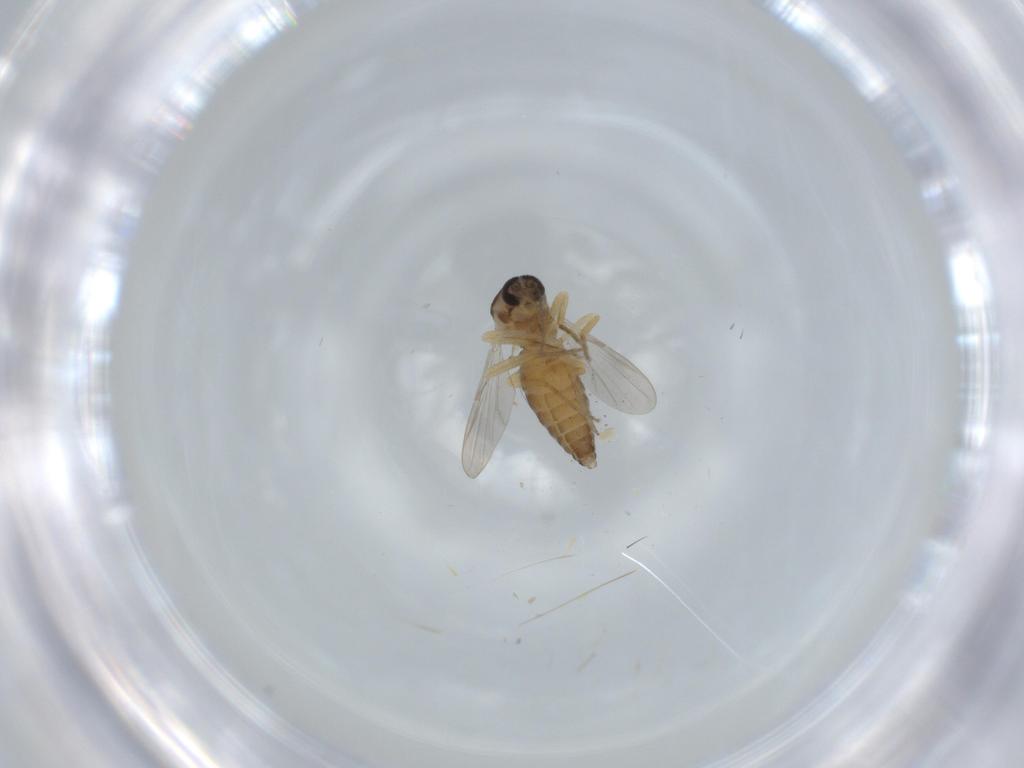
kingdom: Animalia
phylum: Arthropoda
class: Insecta
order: Diptera
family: Ceratopogonidae
